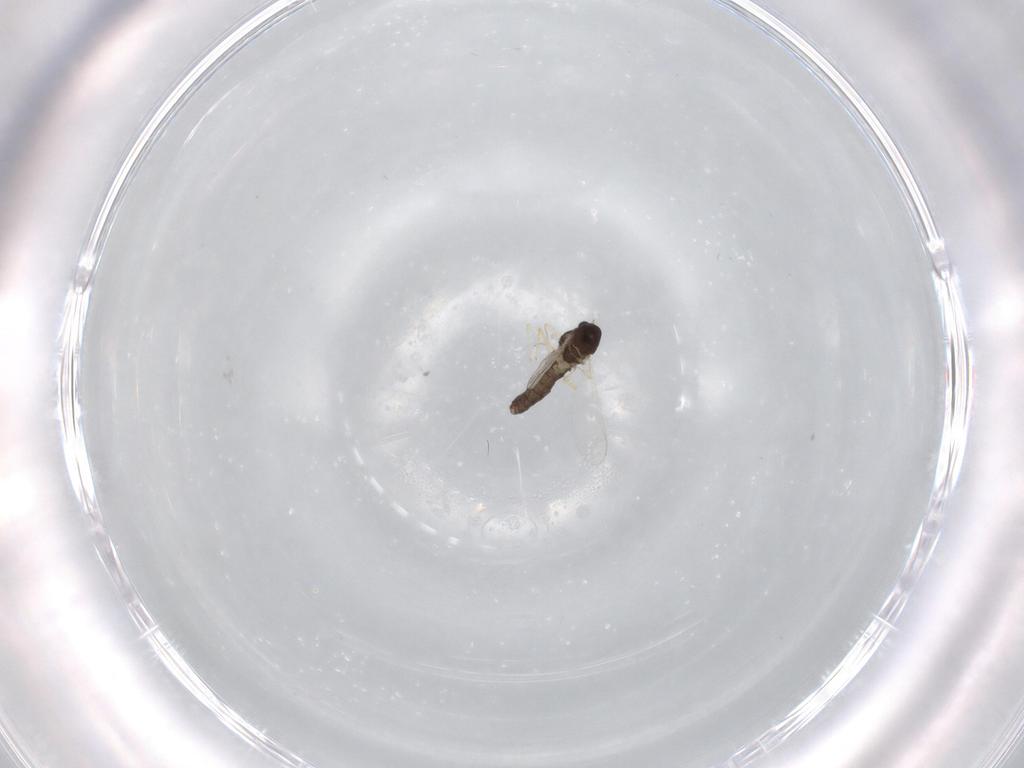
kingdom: Animalia
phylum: Arthropoda
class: Insecta
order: Diptera
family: Chironomidae
